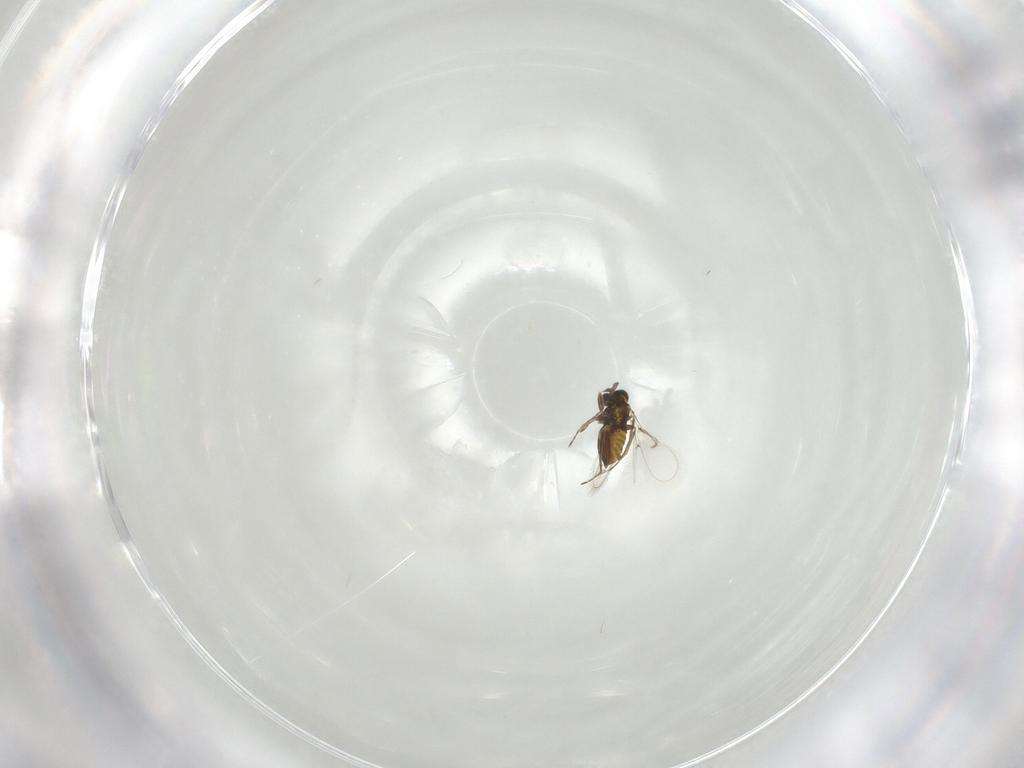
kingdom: Animalia
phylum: Arthropoda
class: Insecta
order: Hymenoptera
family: Trichogrammatidae
